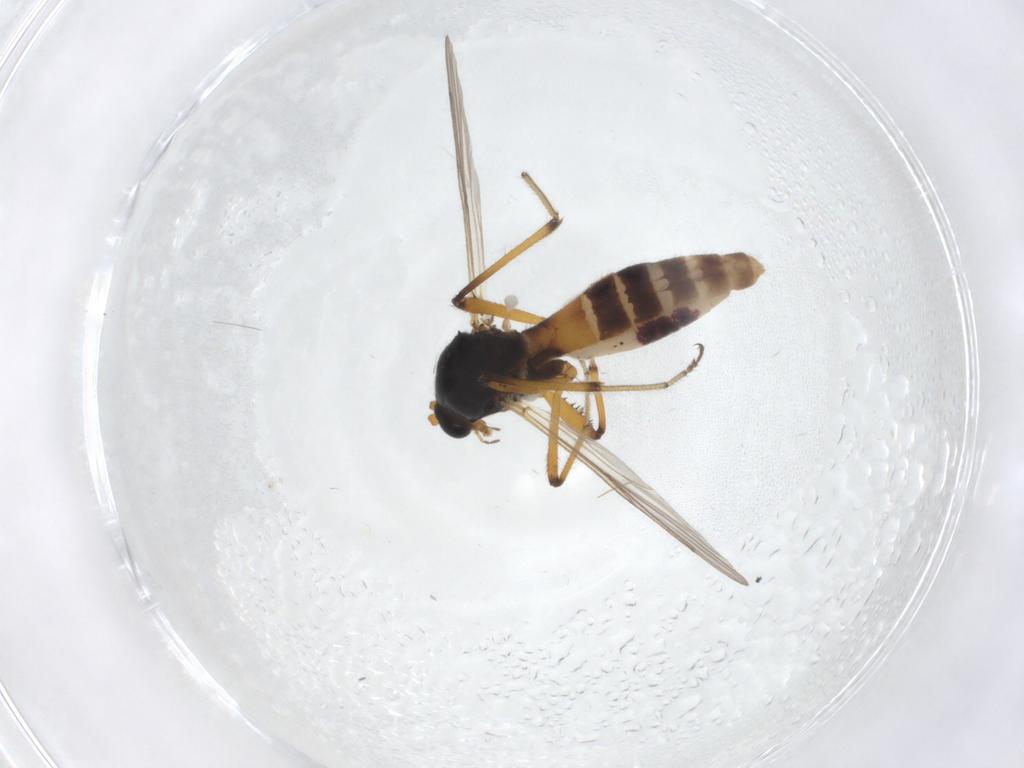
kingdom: Animalia
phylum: Arthropoda
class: Insecta
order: Diptera
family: Ceratopogonidae
